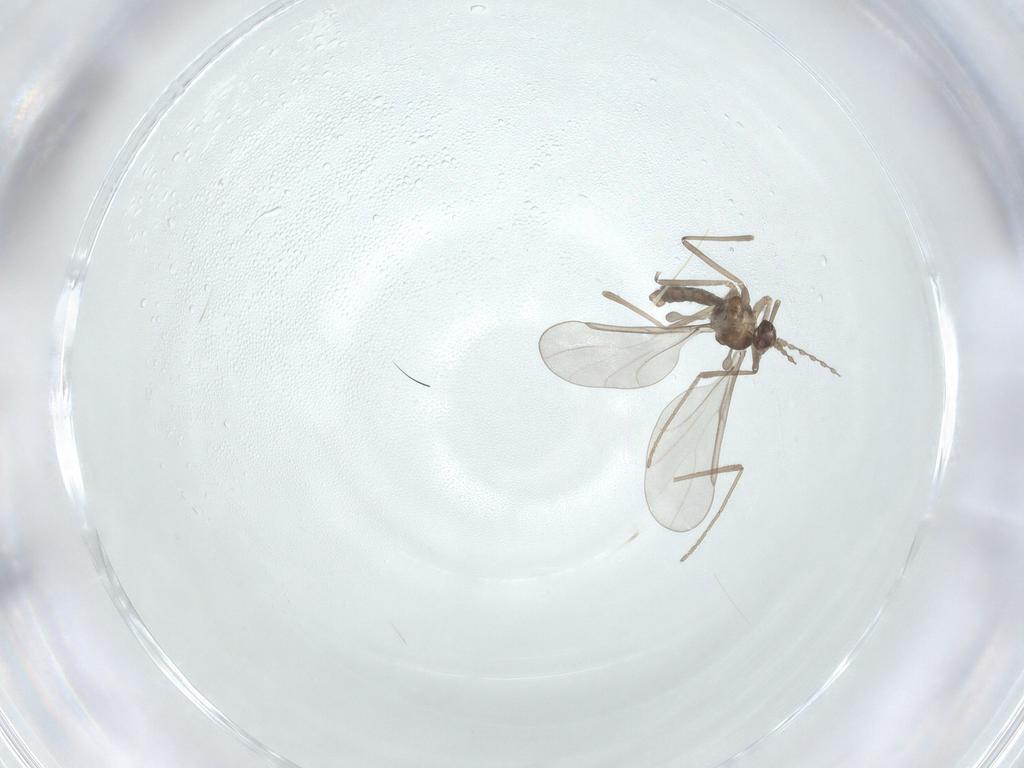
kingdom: Animalia
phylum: Arthropoda
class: Insecta
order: Diptera
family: Cecidomyiidae
